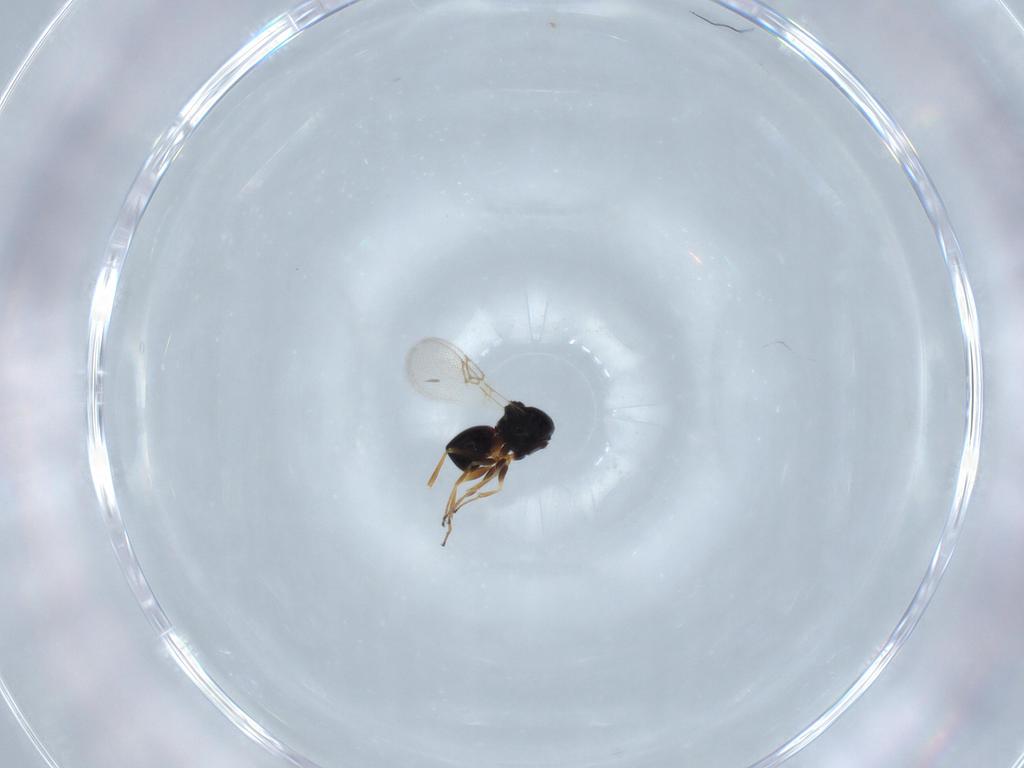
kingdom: Animalia
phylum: Arthropoda
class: Insecta
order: Hymenoptera
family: Figitidae
